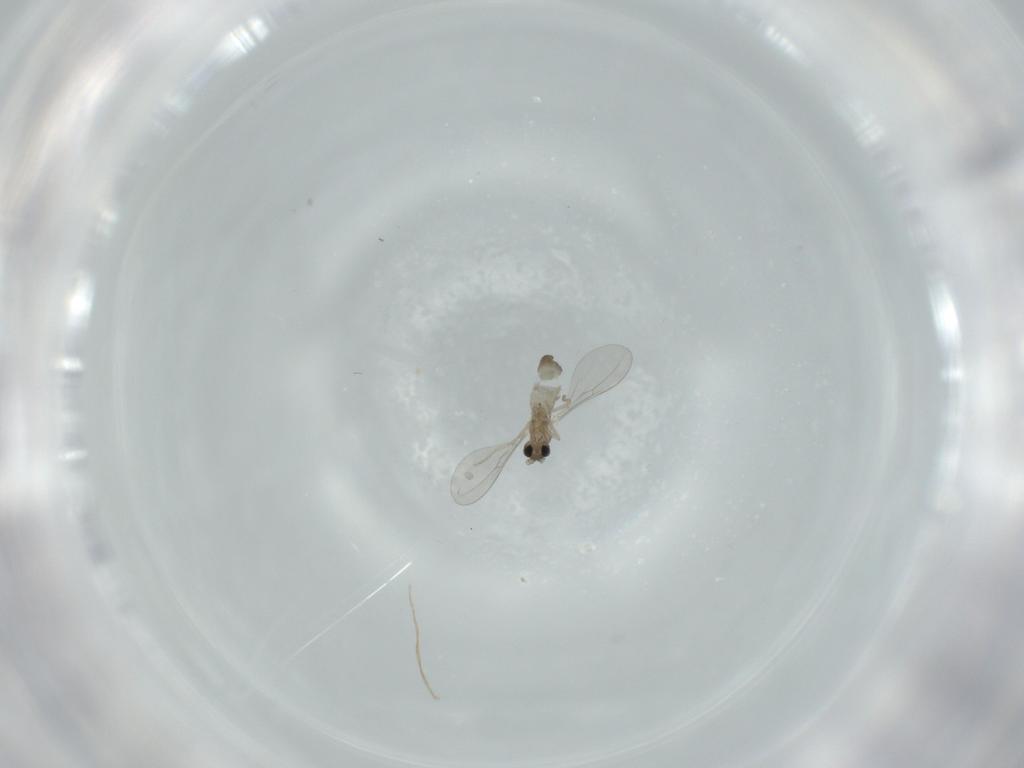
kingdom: Animalia
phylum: Arthropoda
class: Insecta
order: Diptera
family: Cecidomyiidae
